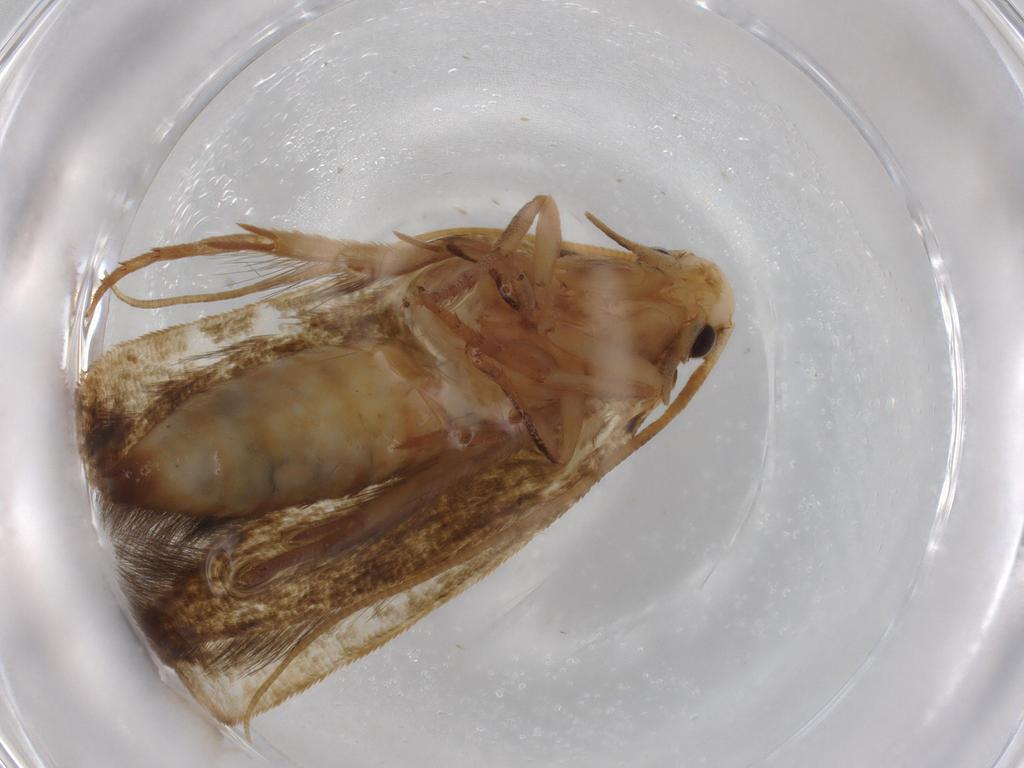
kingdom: Animalia
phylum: Arthropoda
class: Insecta
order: Lepidoptera
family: Tineidae
